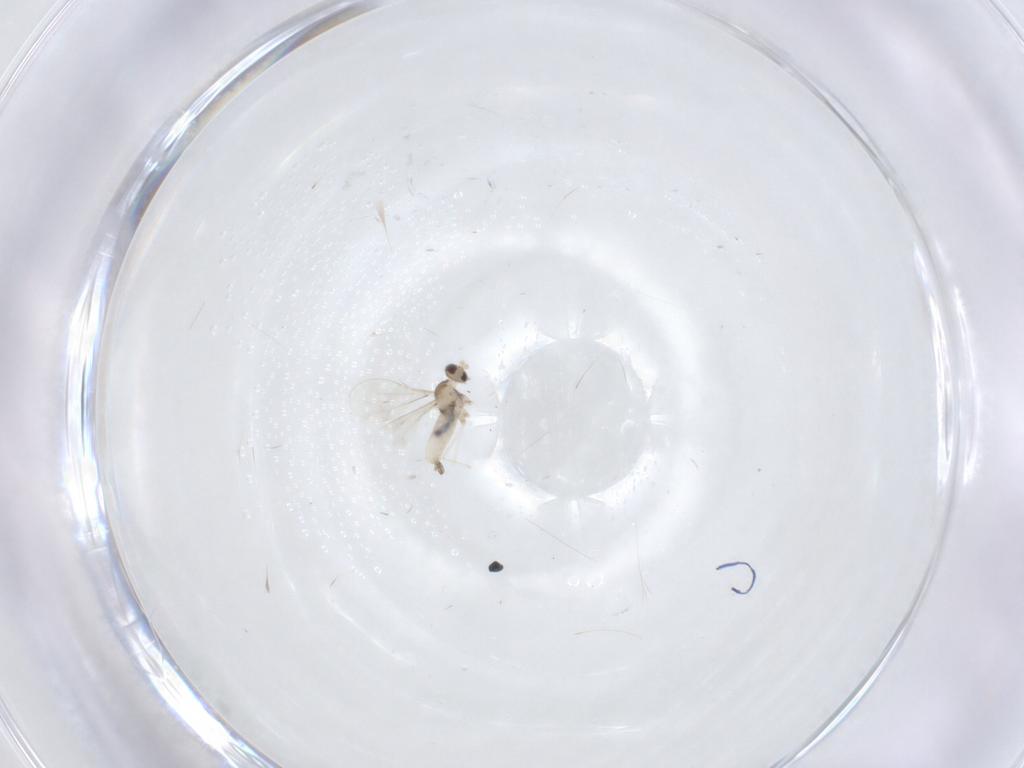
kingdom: Animalia
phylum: Arthropoda
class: Insecta
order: Diptera
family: Cecidomyiidae
